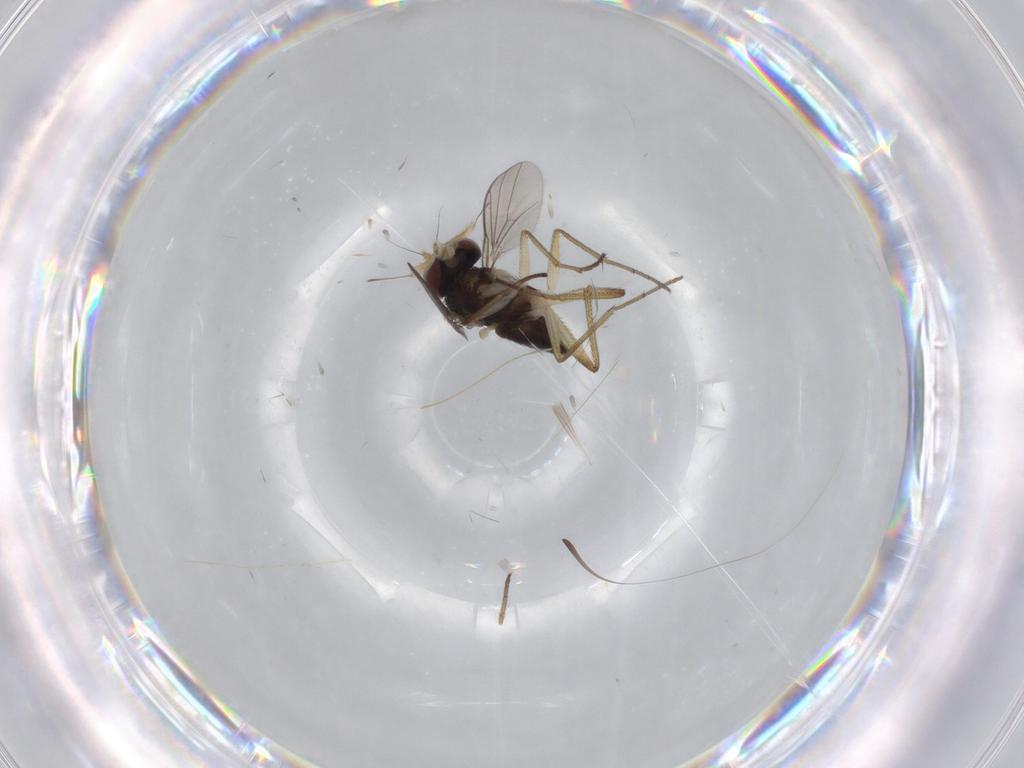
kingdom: Animalia
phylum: Arthropoda
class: Insecta
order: Diptera
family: Dolichopodidae
